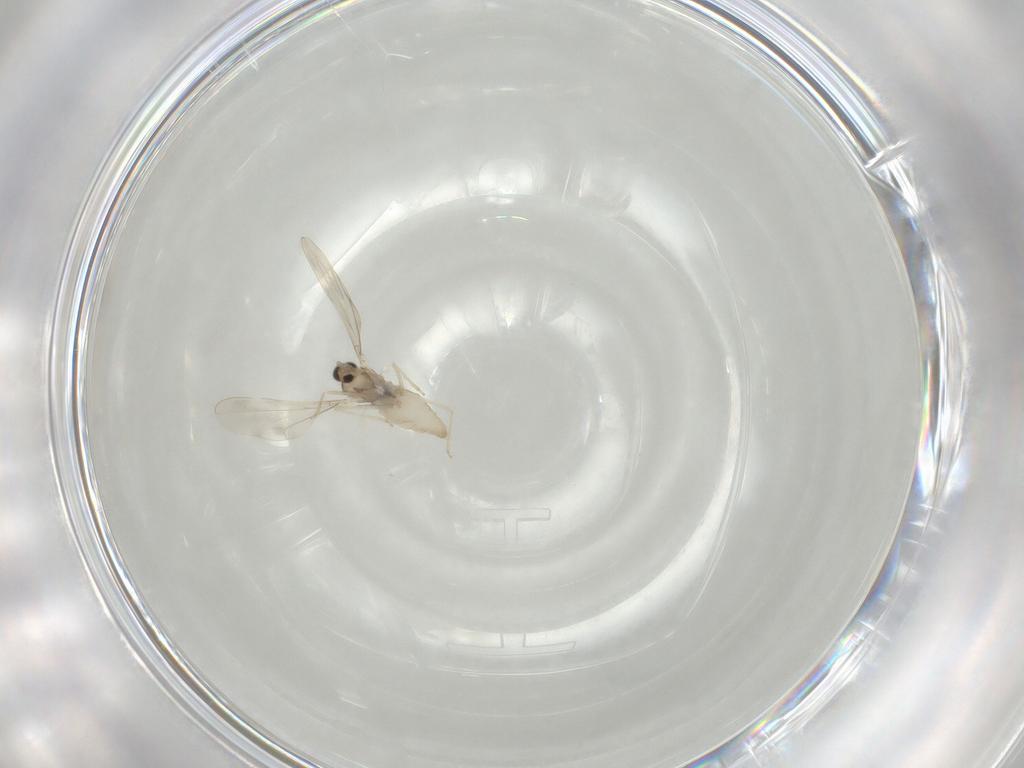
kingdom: Animalia
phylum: Arthropoda
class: Insecta
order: Diptera
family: Cecidomyiidae
